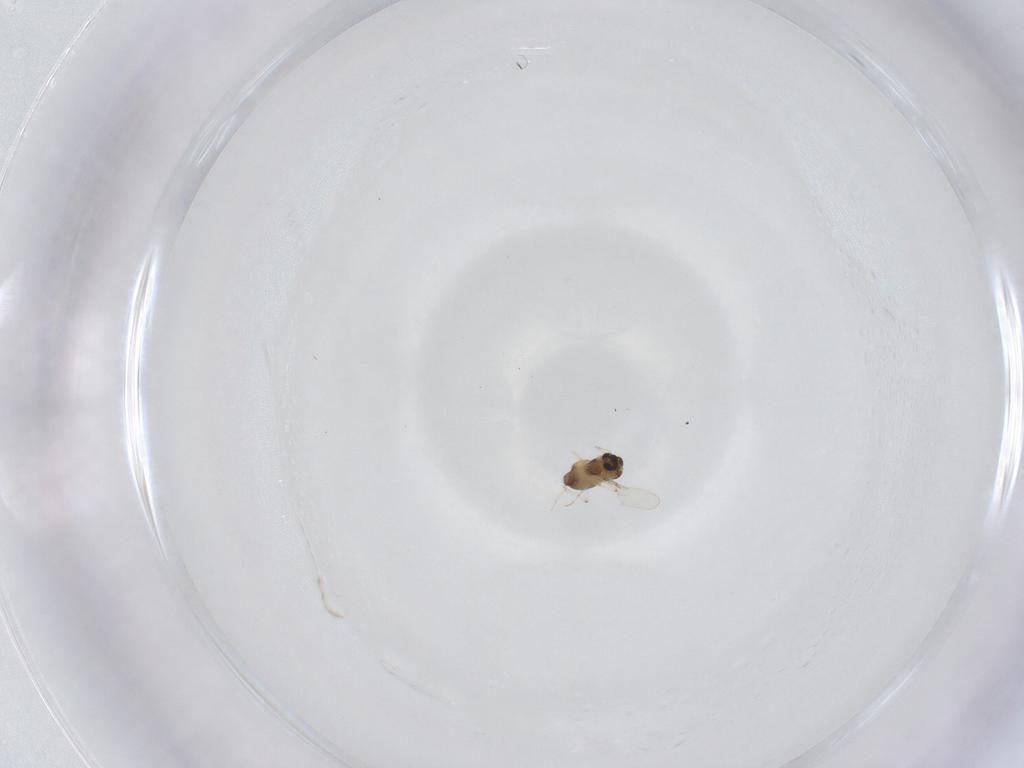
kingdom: Animalia
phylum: Arthropoda
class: Insecta
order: Diptera
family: Chironomidae
